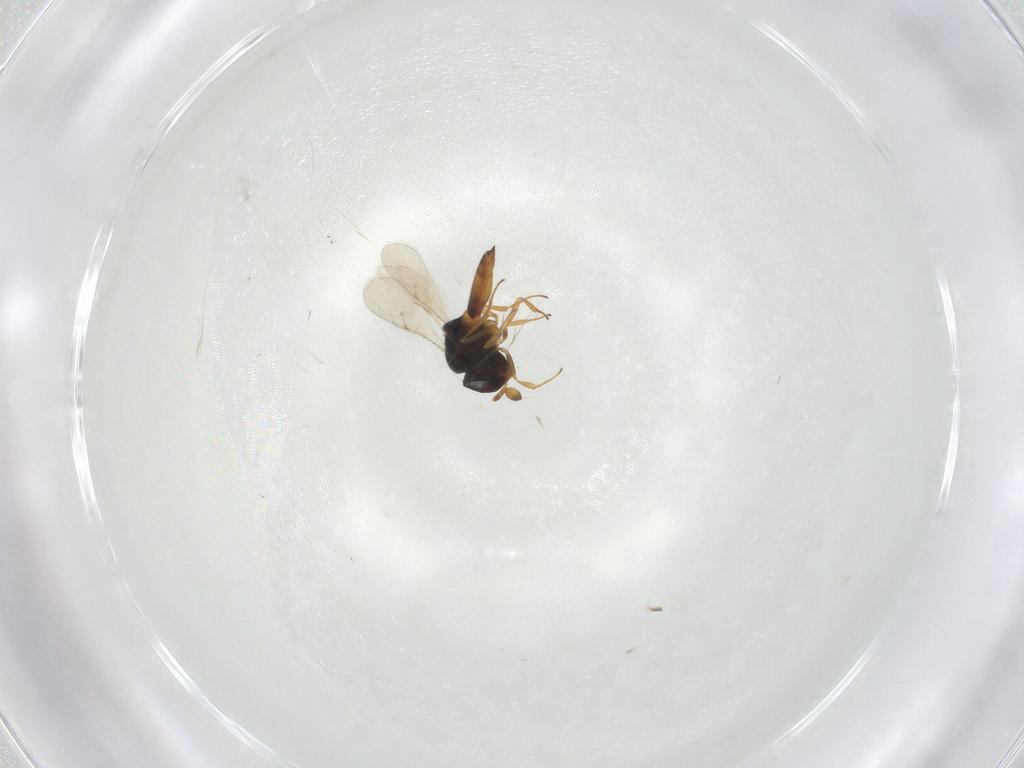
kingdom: Animalia
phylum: Arthropoda
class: Insecta
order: Hymenoptera
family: Scelionidae
